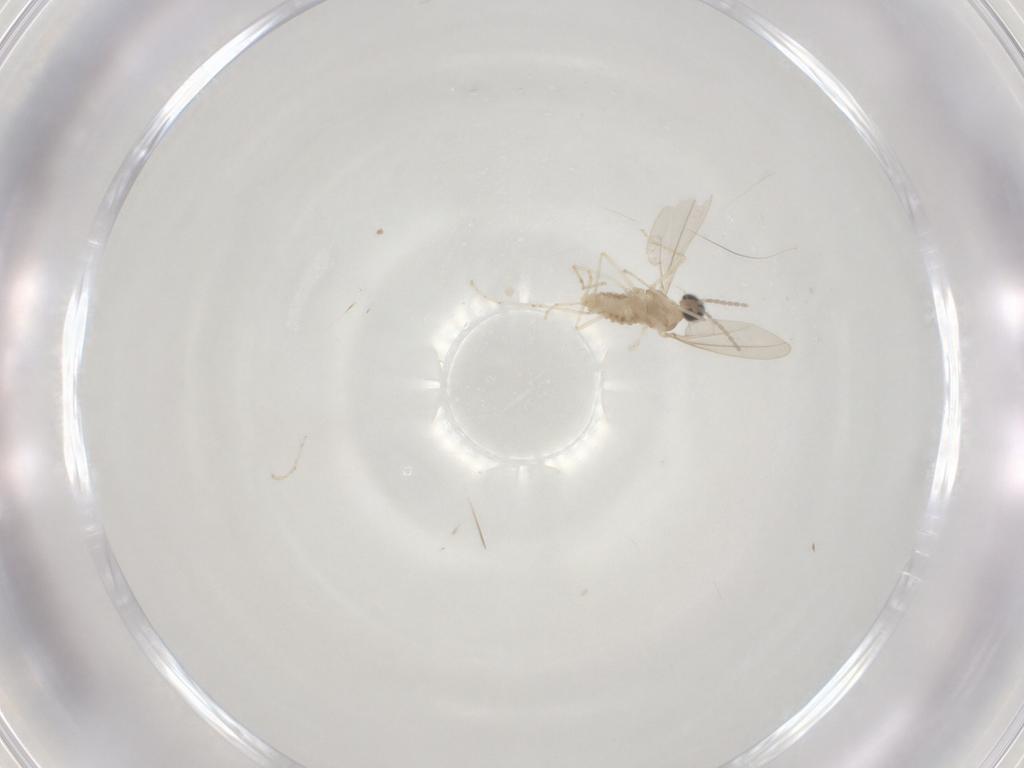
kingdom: Animalia
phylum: Arthropoda
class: Insecta
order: Diptera
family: Cecidomyiidae
